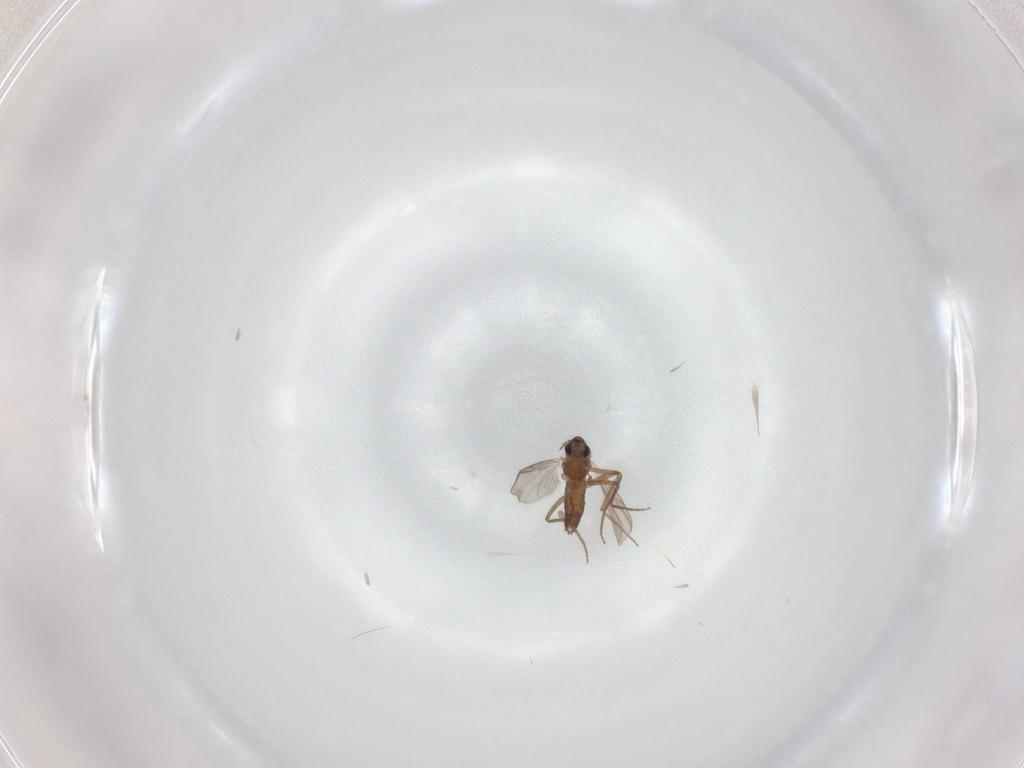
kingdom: Animalia
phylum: Arthropoda
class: Insecta
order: Diptera
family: Chironomidae
